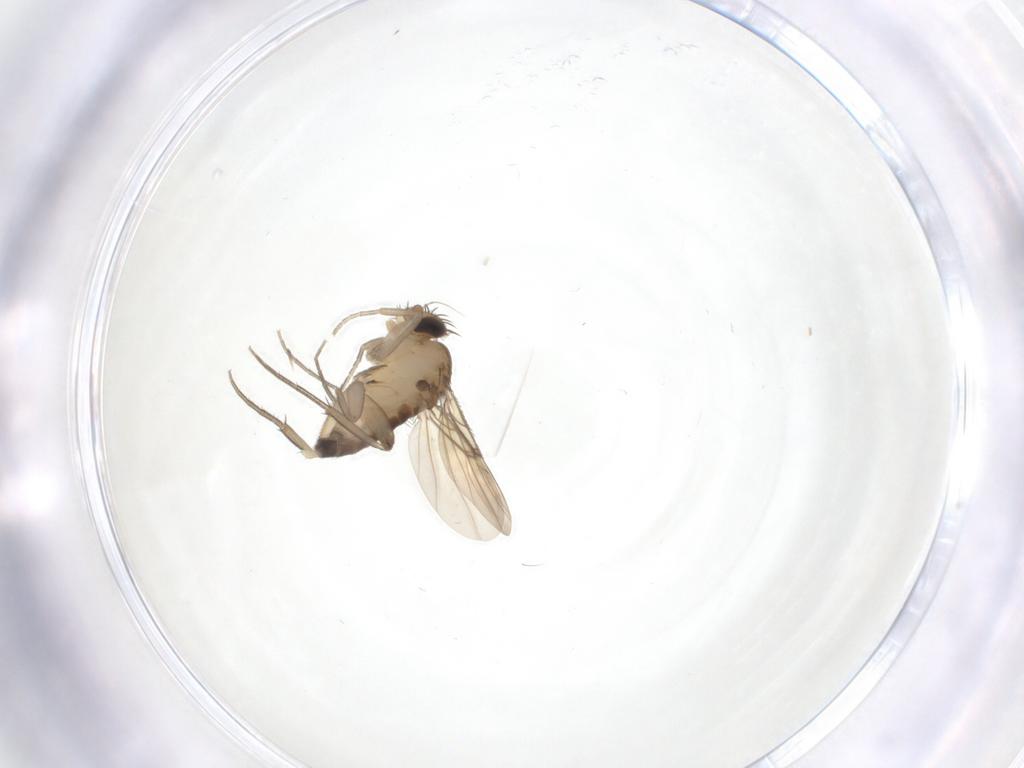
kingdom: Animalia
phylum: Arthropoda
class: Insecta
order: Diptera
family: Phoridae
